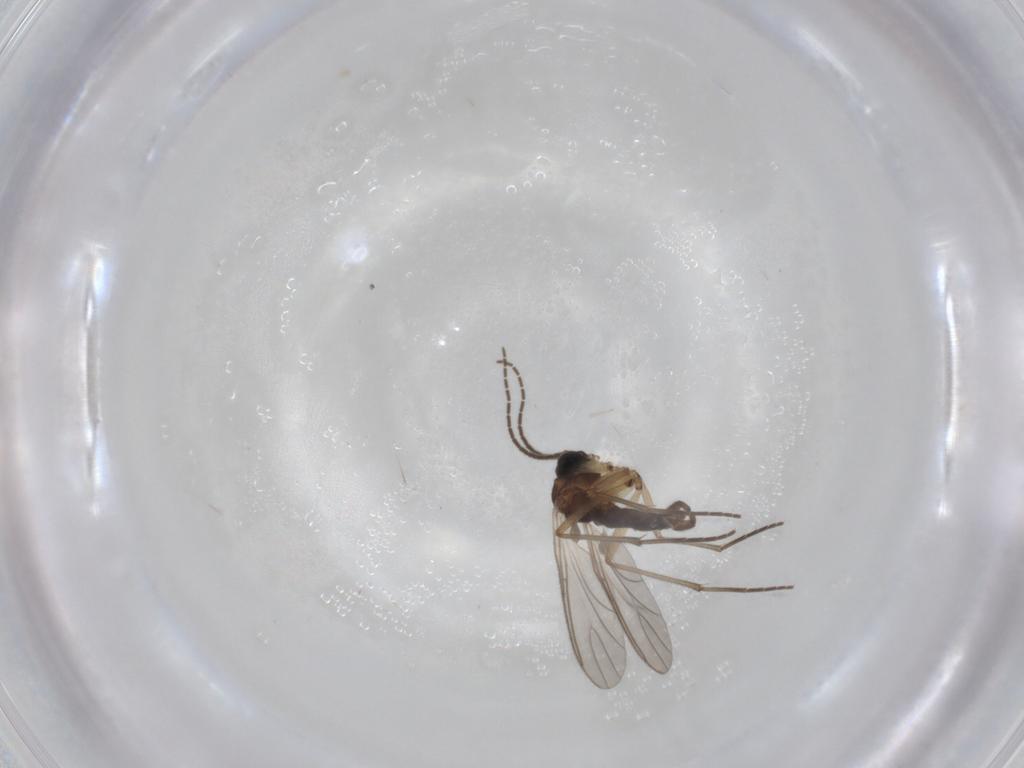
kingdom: Animalia
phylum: Arthropoda
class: Insecta
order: Diptera
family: Sciaridae
